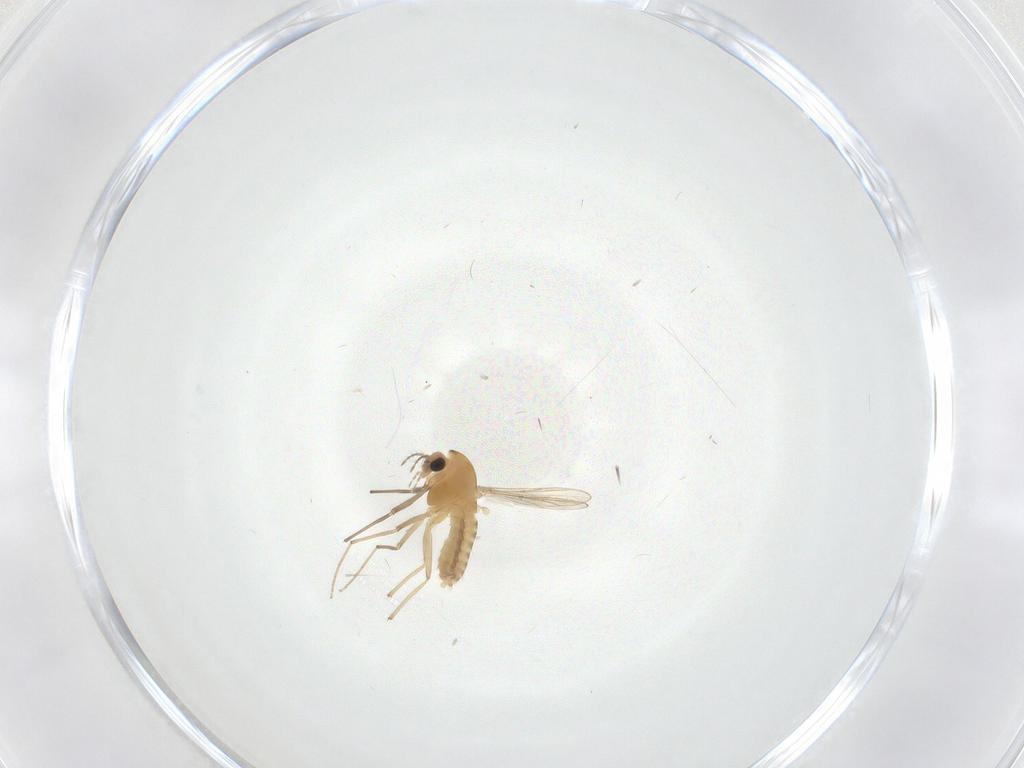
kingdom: Animalia
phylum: Arthropoda
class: Insecta
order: Diptera
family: Chironomidae
